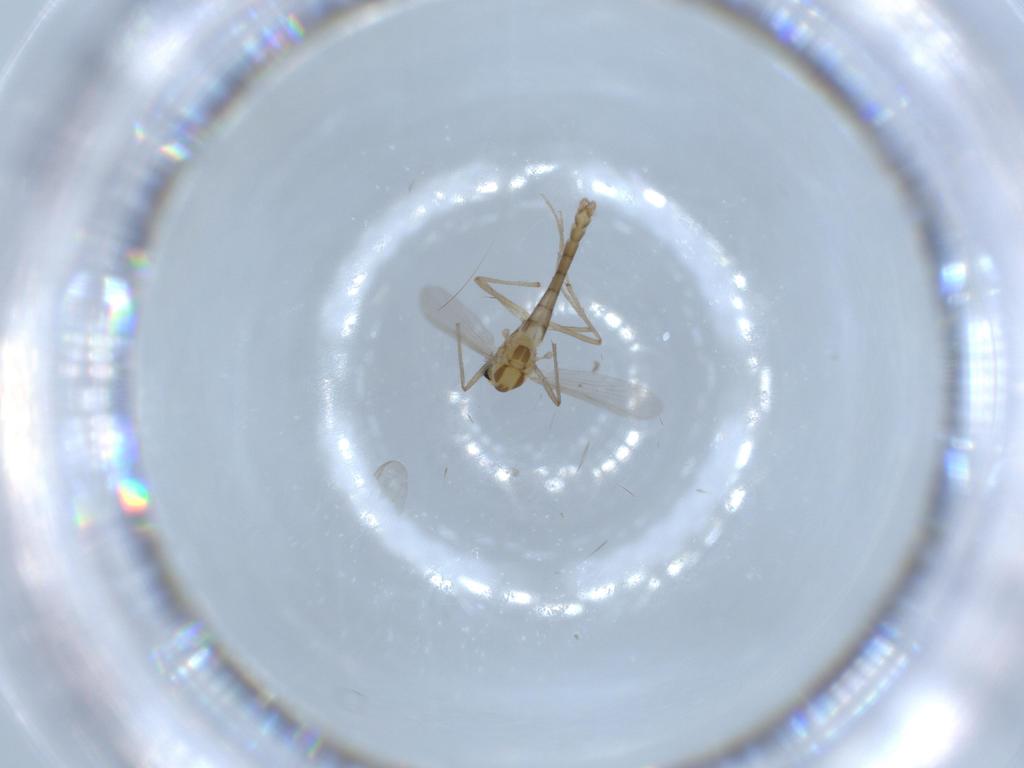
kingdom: Animalia
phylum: Arthropoda
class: Insecta
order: Diptera
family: Chironomidae
